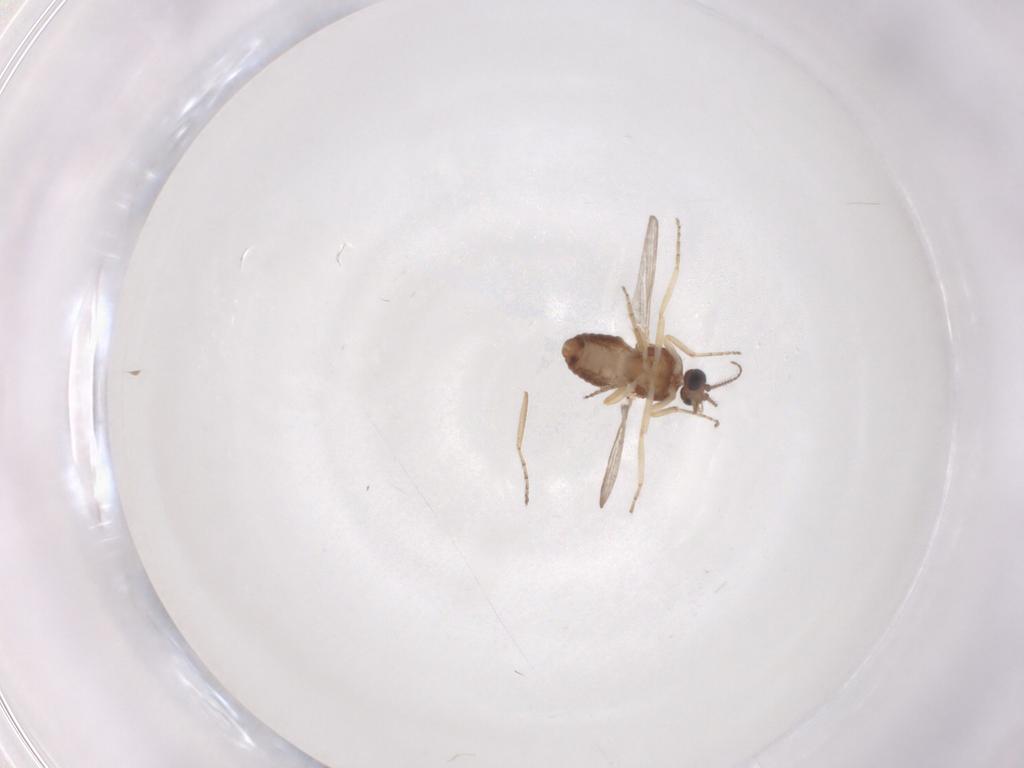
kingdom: Animalia
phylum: Arthropoda
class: Insecta
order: Diptera
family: Ceratopogonidae
